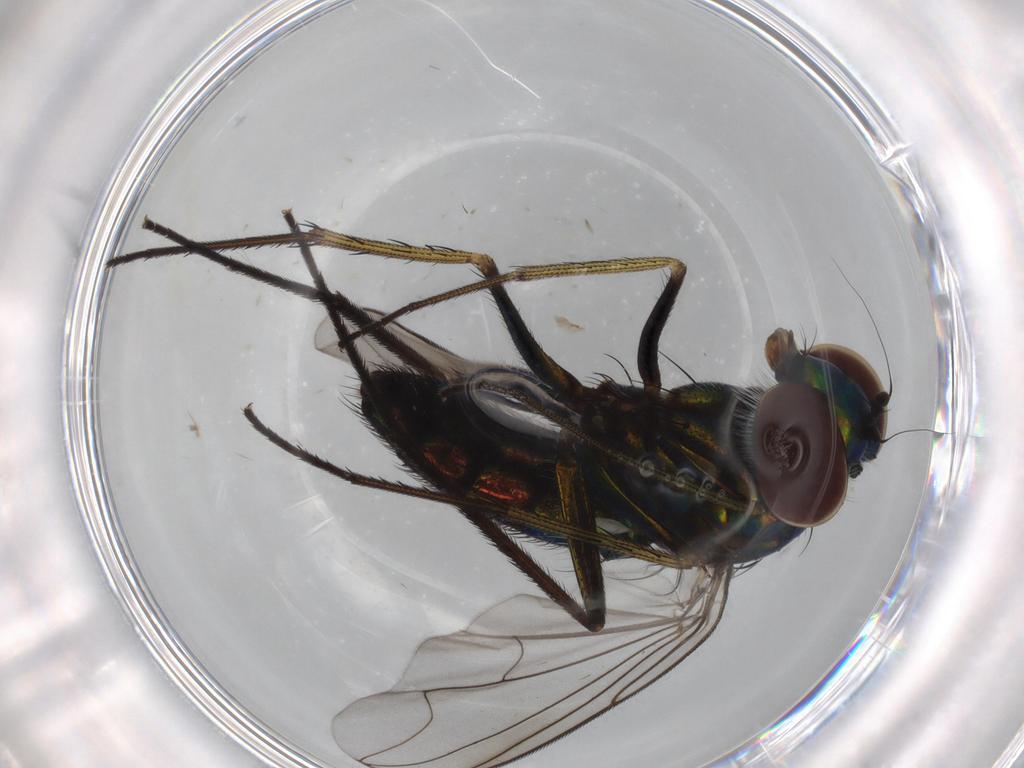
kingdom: Animalia
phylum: Arthropoda
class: Insecta
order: Diptera
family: Dolichopodidae
